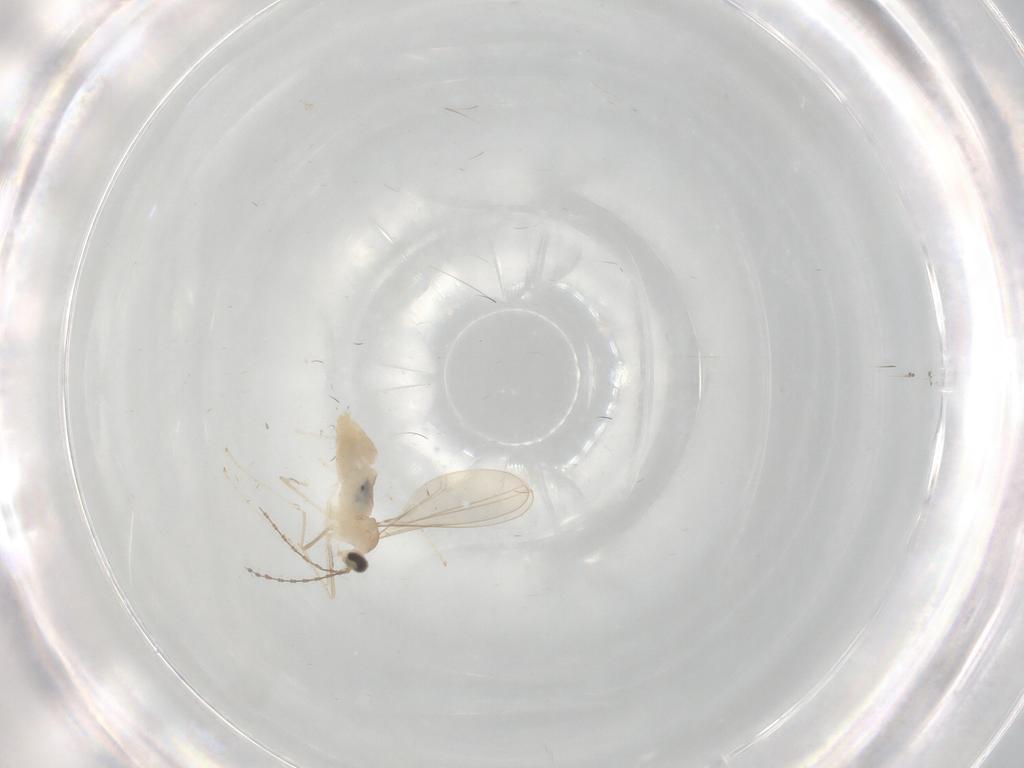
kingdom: Animalia
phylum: Arthropoda
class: Insecta
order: Diptera
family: Cecidomyiidae
